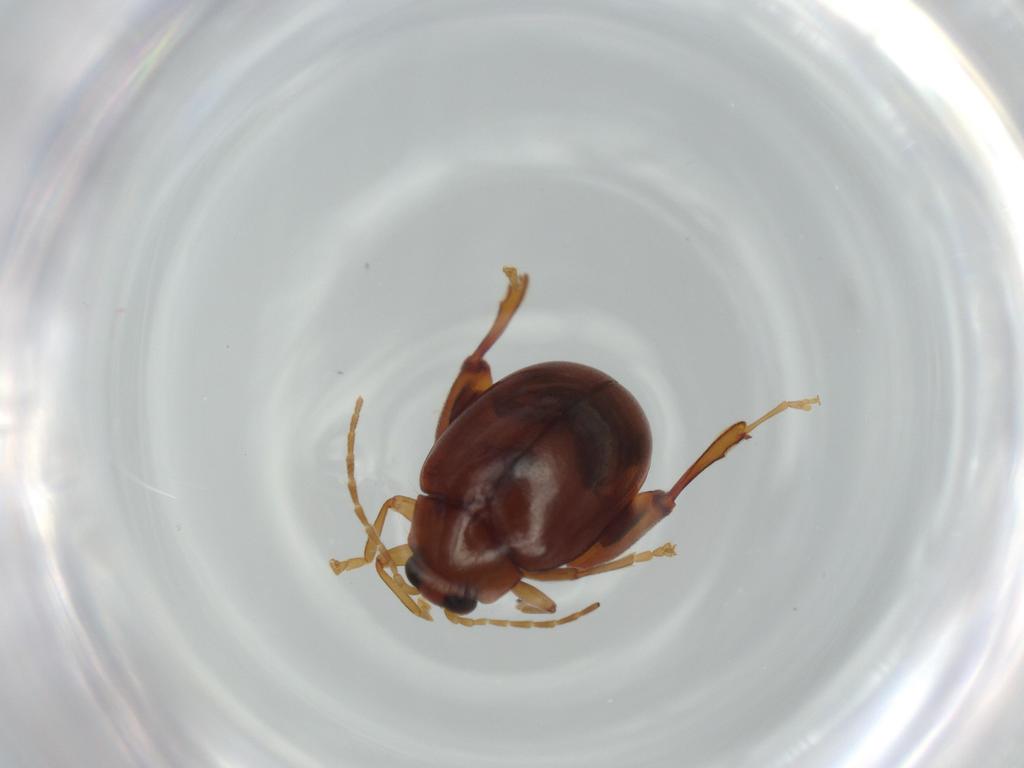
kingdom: Animalia
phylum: Arthropoda
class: Insecta
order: Coleoptera
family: Chrysomelidae
